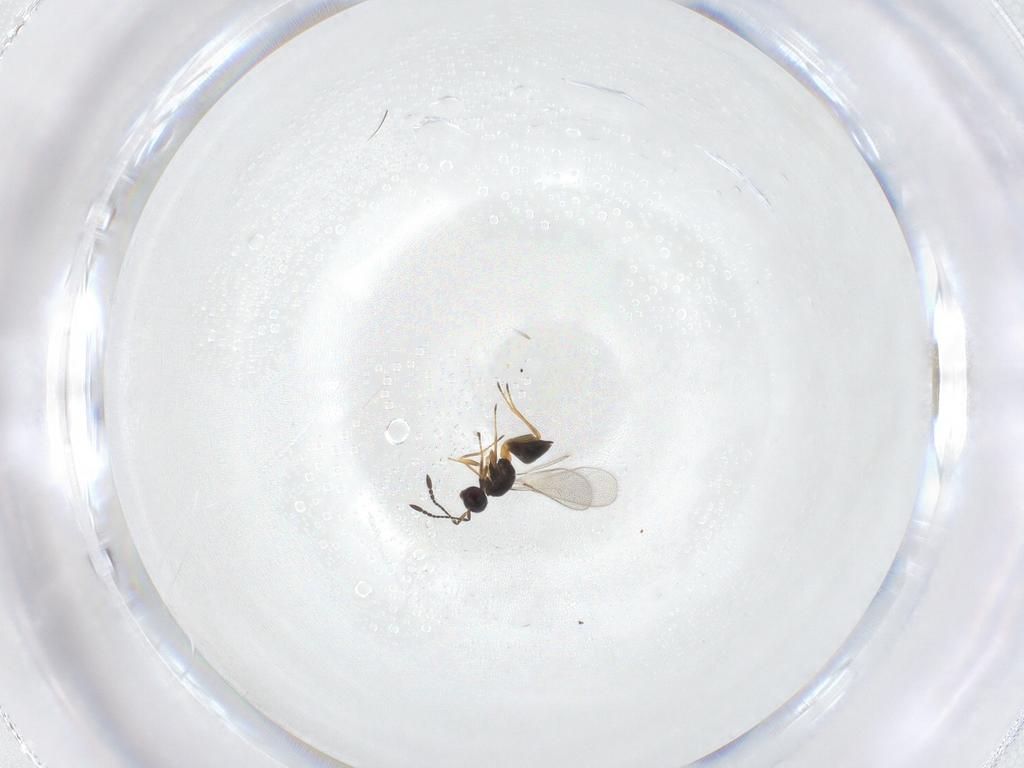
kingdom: Animalia
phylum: Arthropoda
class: Insecta
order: Hymenoptera
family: Mymaridae
